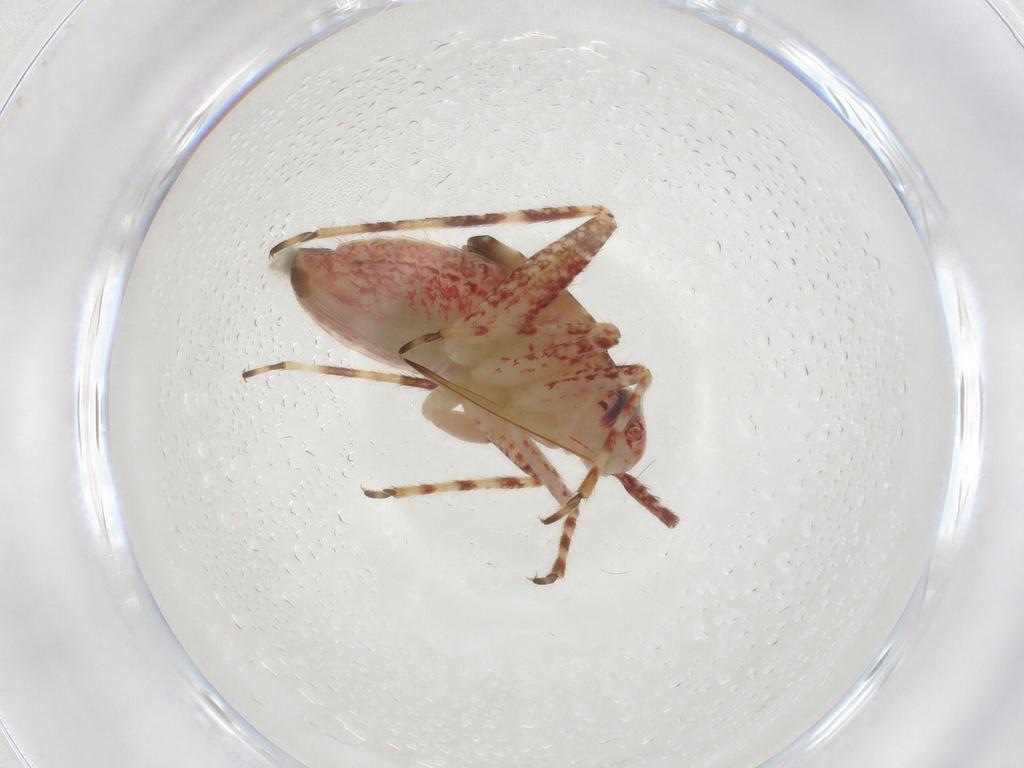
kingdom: Animalia
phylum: Arthropoda
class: Insecta
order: Hemiptera
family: Miridae
